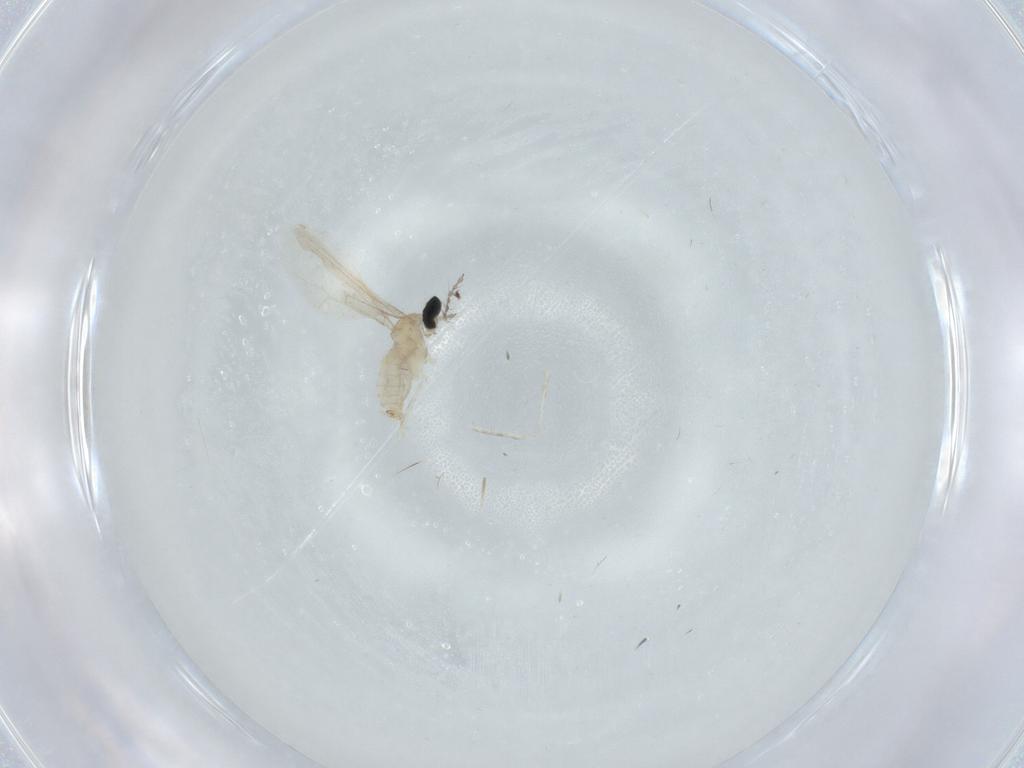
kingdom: Animalia
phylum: Arthropoda
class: Insecta
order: Diptera
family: Cecidomyiidae
